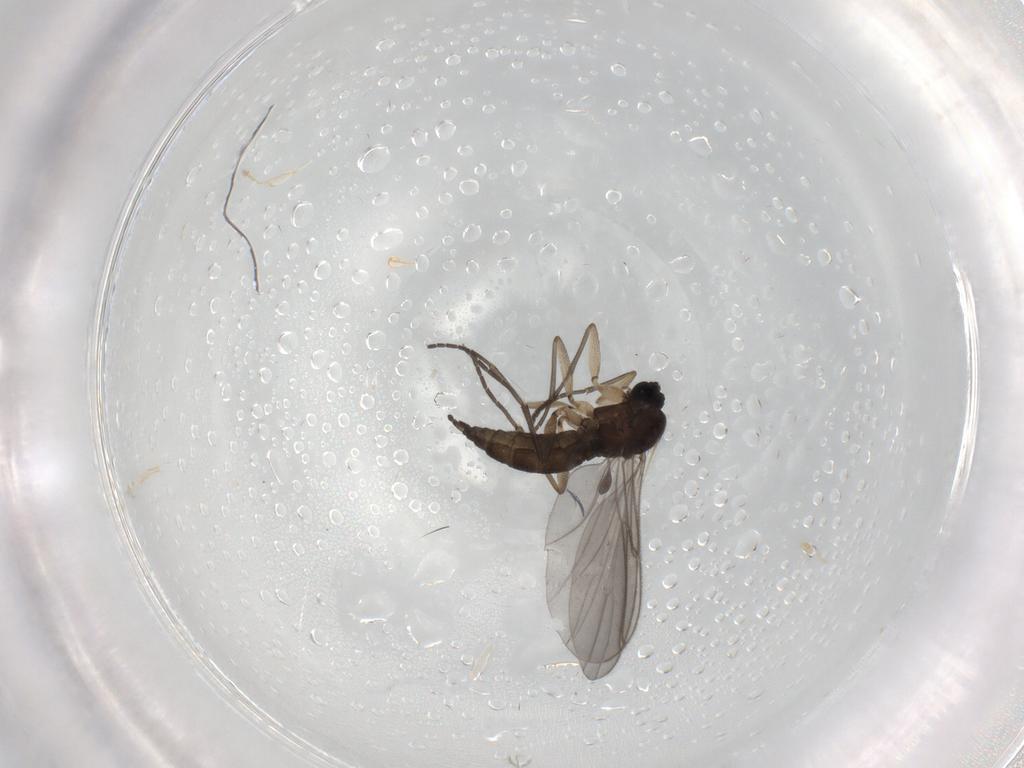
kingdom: Animalia
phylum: Arthropoda
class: Insecta
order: Diptera
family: Sciaridae
